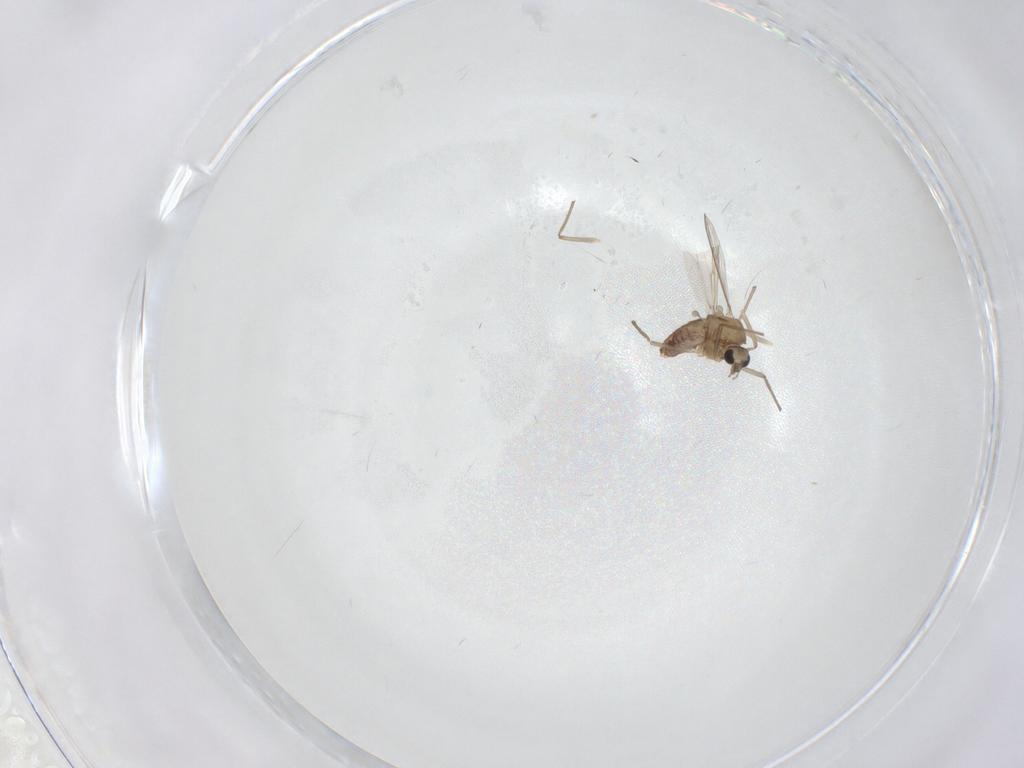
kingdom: Animalia
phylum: Arthropoda
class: Insecta
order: Diptera
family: Chironomidae
